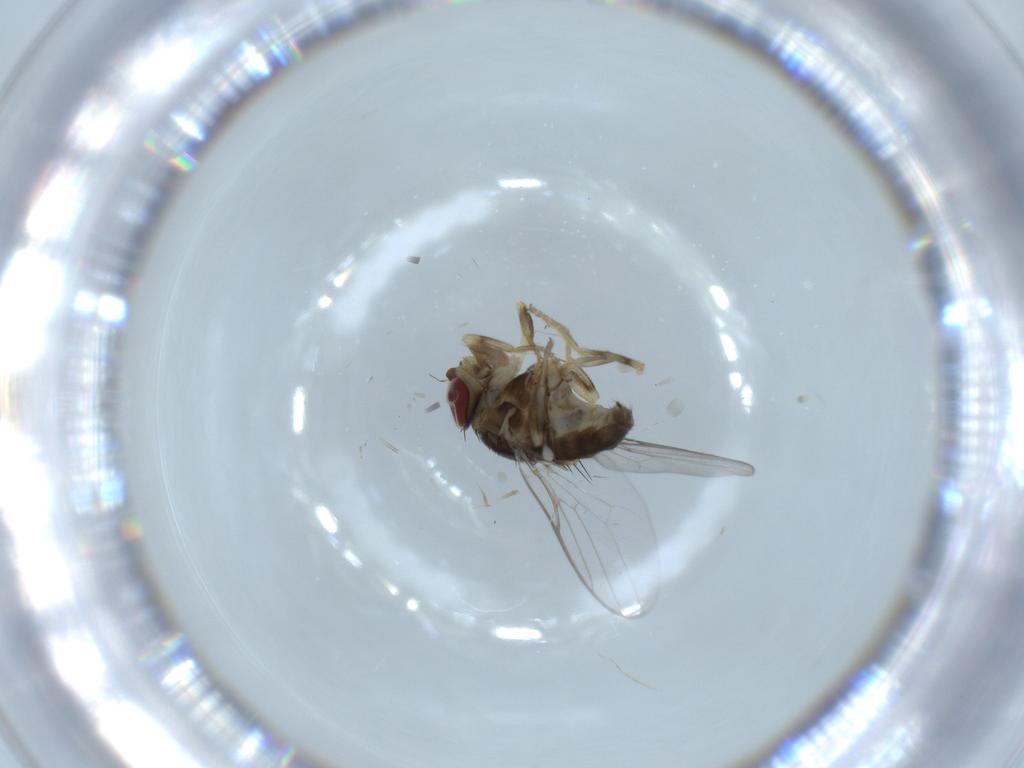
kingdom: Animalia
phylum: Arthropoda
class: Insecta
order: Diptera
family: Chloropidae
